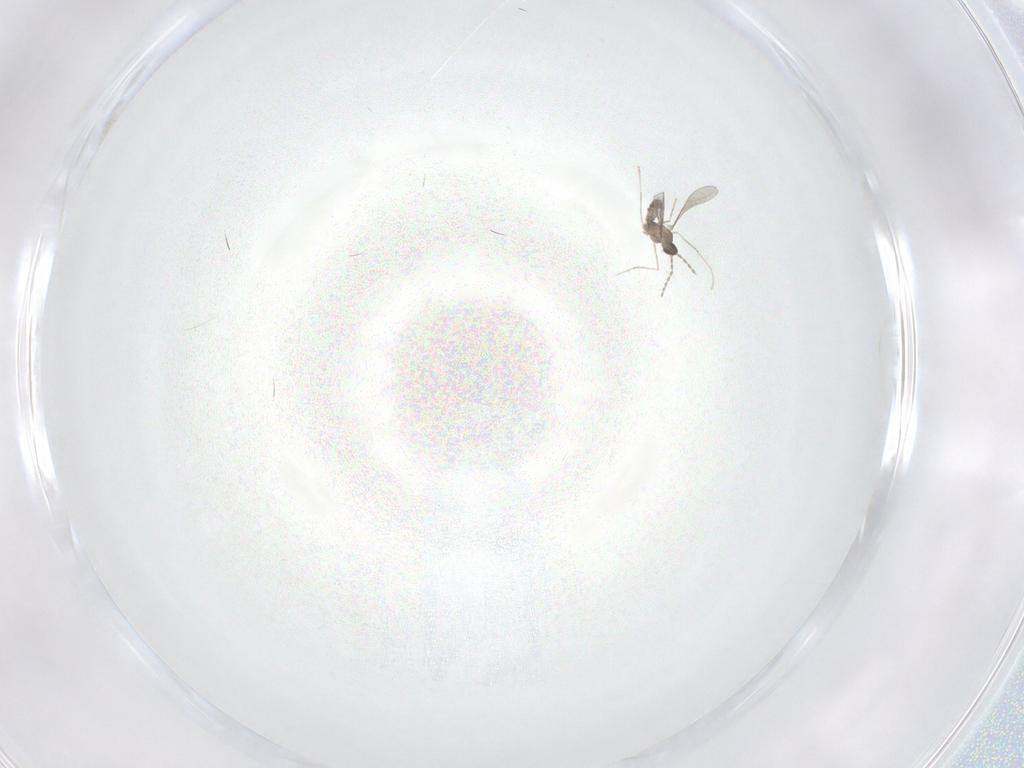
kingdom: Animalia
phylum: Arthropoda
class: Insecta
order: Diptera
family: Cecidomyiidae
